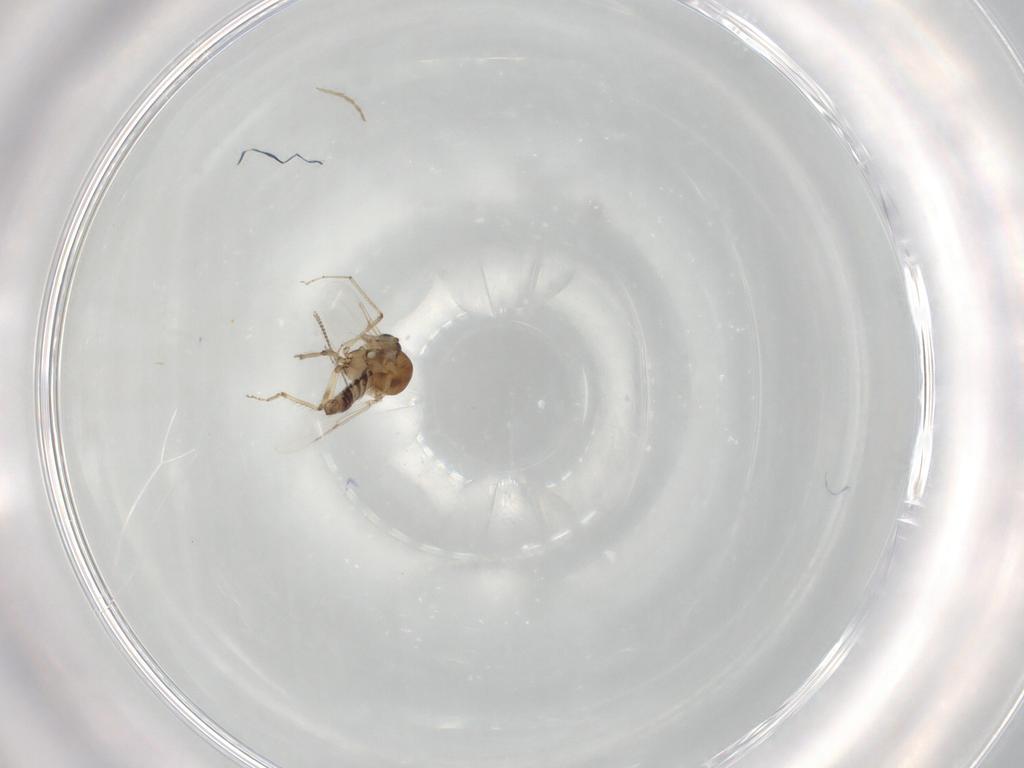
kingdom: Animalia
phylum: Arthropoda
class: Insecta
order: Diptera
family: Ceratopogonidae
